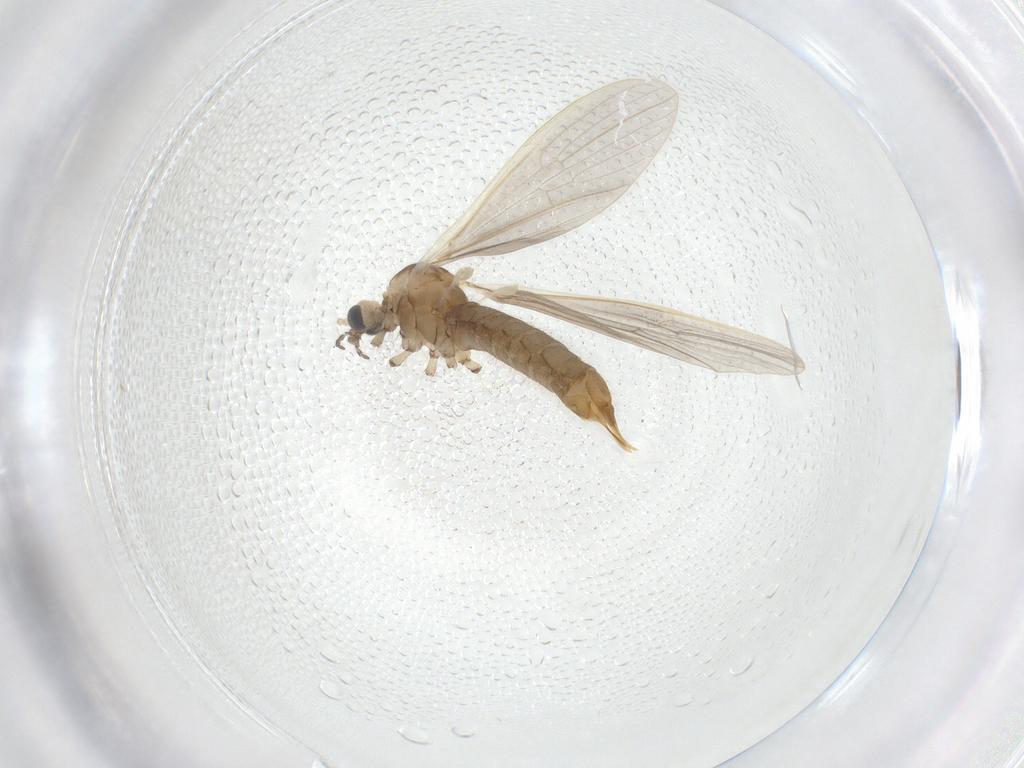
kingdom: Animalia
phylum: Arthropoda
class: Insecta
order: Diptera
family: Limoniidae
